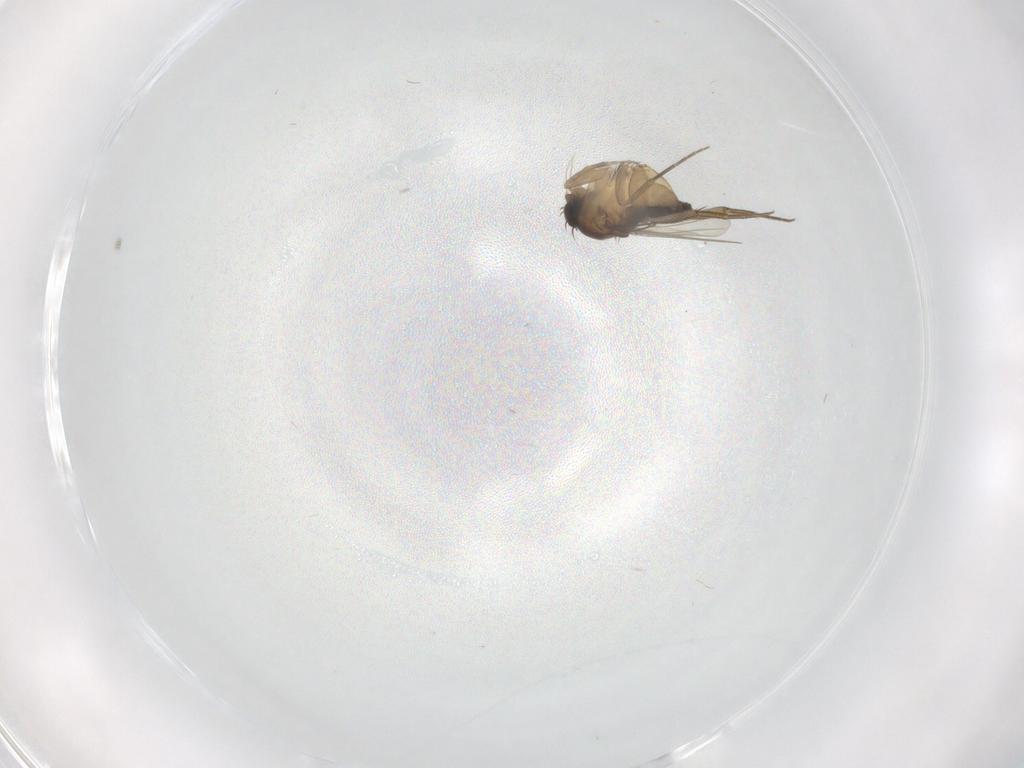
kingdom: Animalia
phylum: Arthropoda
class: Insecta
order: Diptera
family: Phoridae
